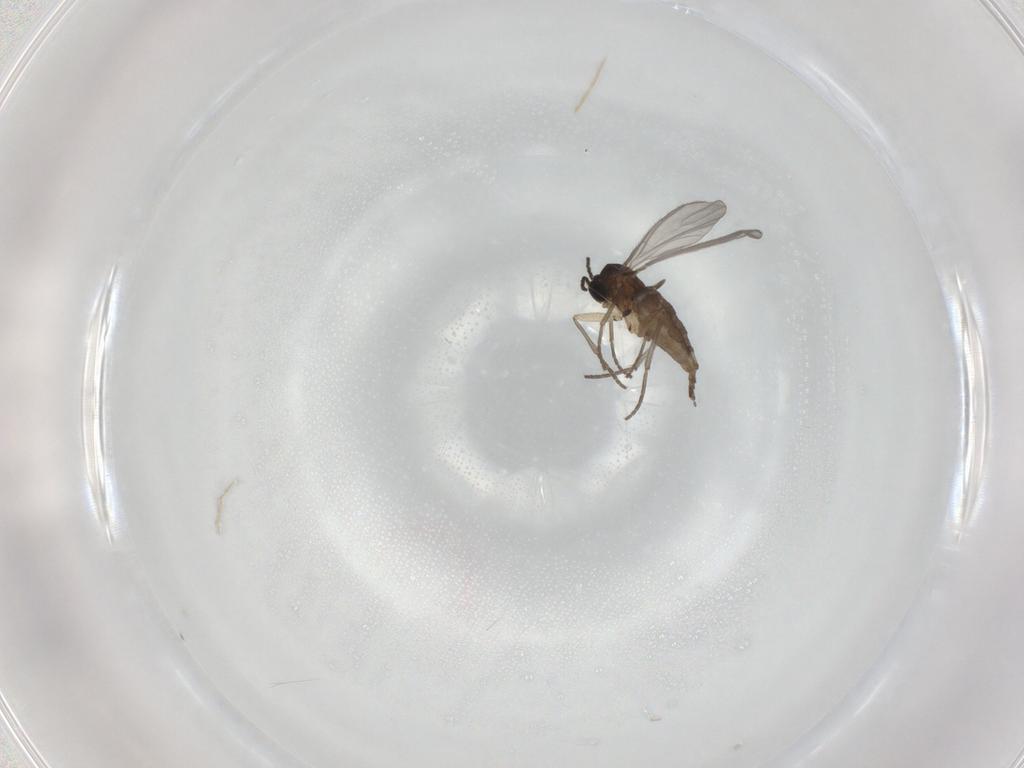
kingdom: Animalia
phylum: Arthropoda
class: Insecta
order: Diptera
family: Sciaridae
